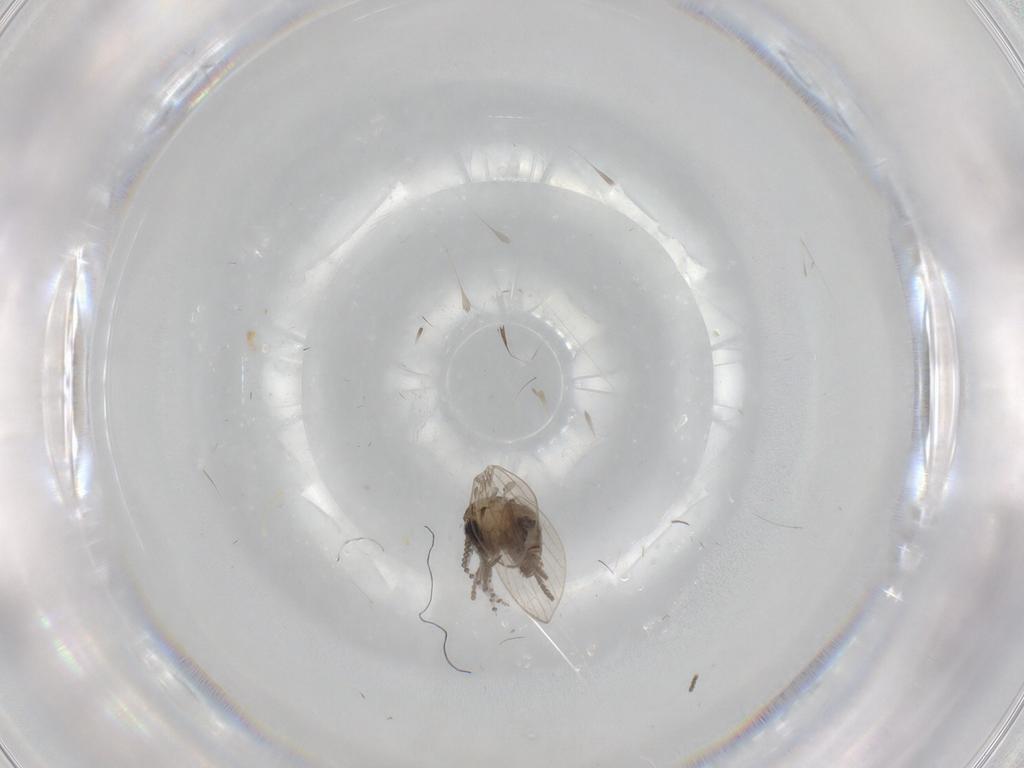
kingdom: Animalia
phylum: Arthropoda
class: Insecta
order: Diptera
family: Psychodidae
